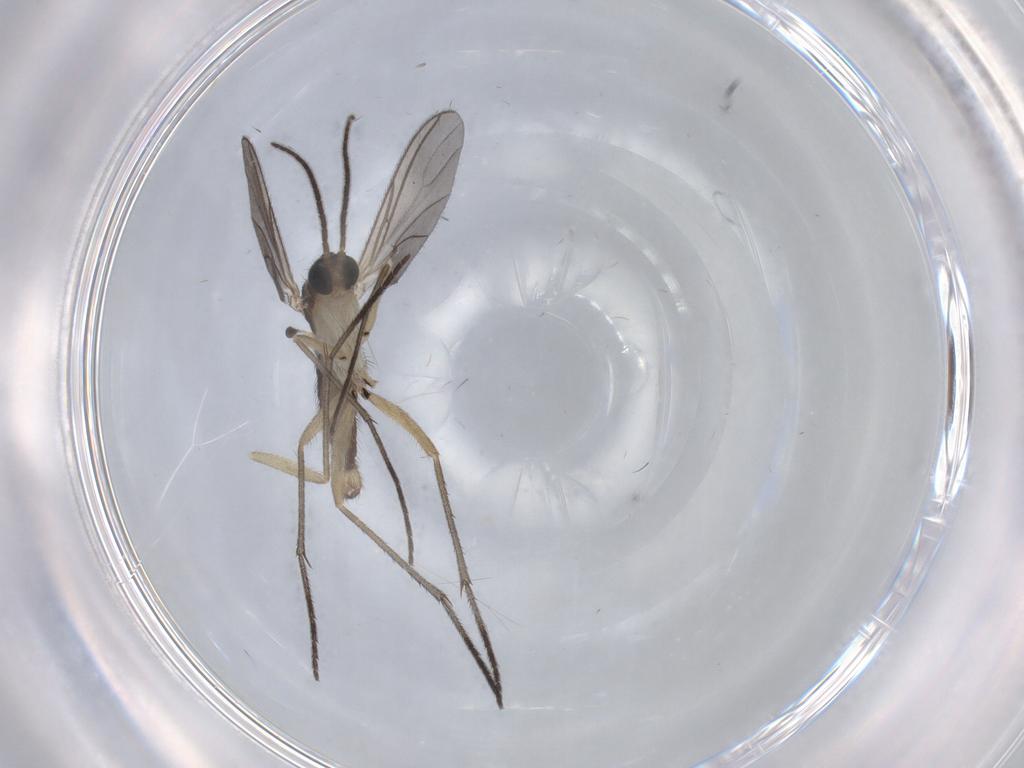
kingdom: Animalia
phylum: Arthropoda
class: Insecta
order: Diptera
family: Sciaridae
